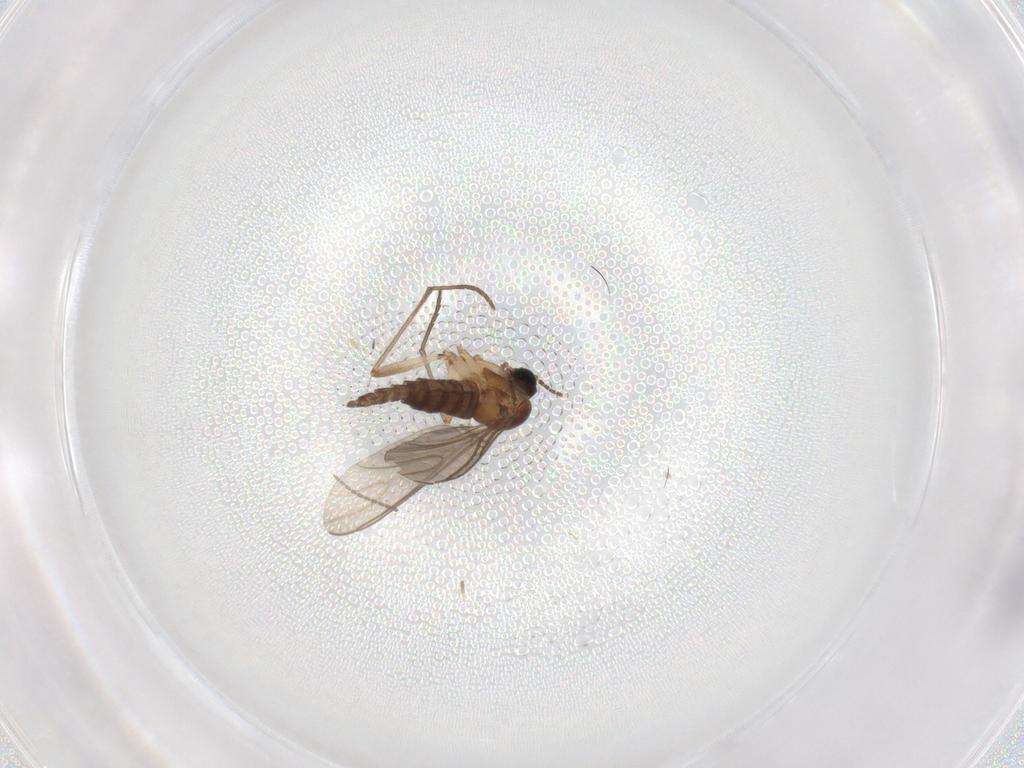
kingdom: Animalia
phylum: Arthropoda
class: Insecta
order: Diptera
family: Sciaridae
